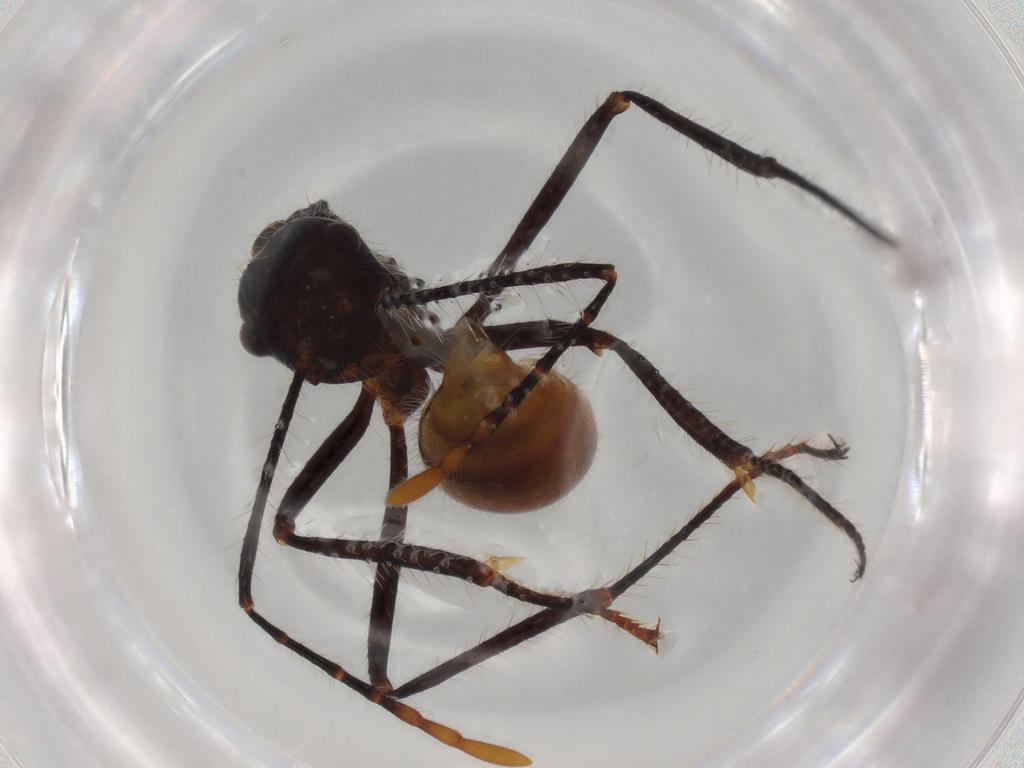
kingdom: Animalia
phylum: Arthropoda
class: Insecta
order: Hymenoptera
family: Formicidae
